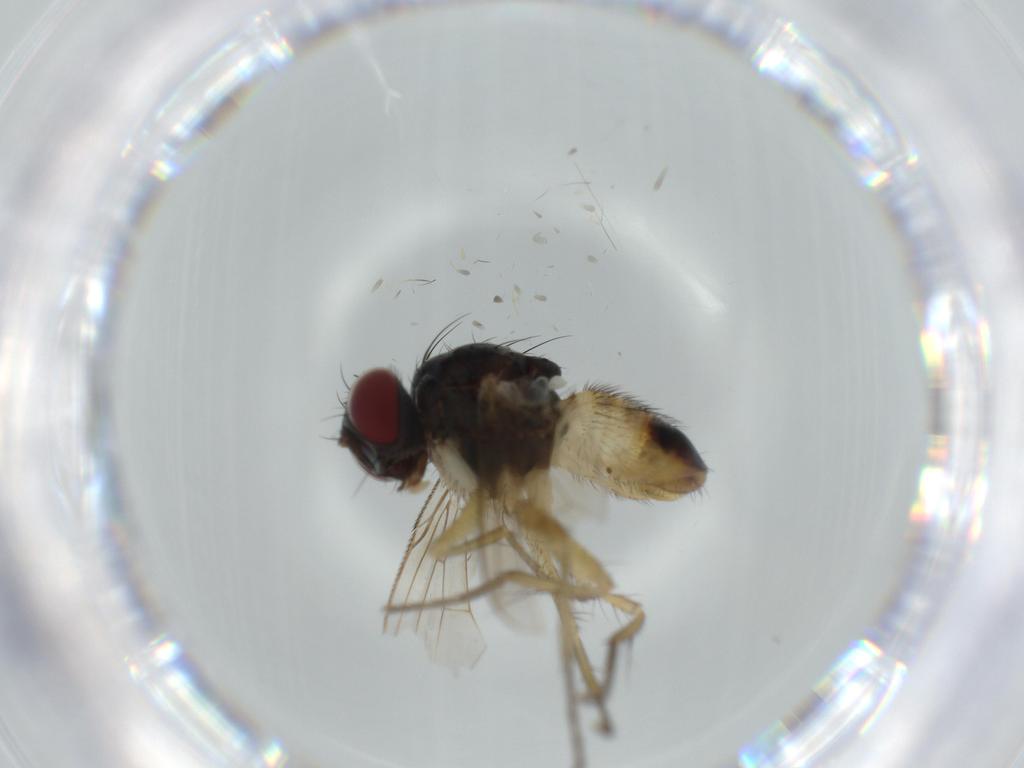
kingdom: Animalia
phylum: Arthropoda
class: Insecta
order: Diptera
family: Muscidae
